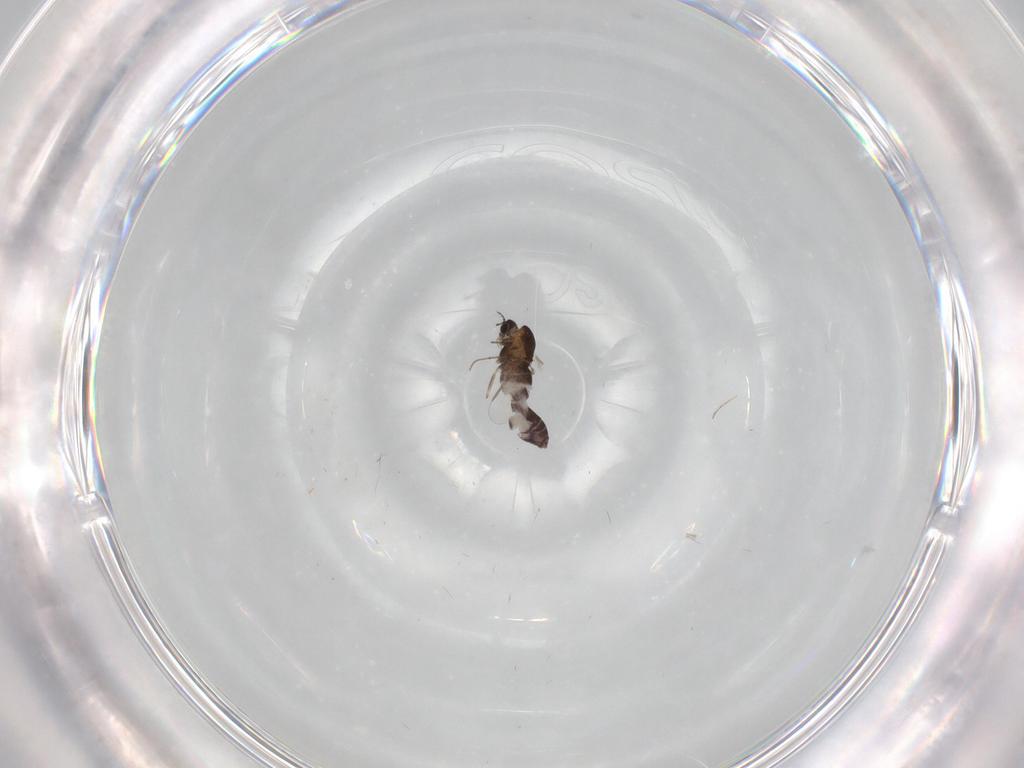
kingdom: Animalia
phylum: Arthropoda
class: Insecta
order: Diptera
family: Chironomidae
